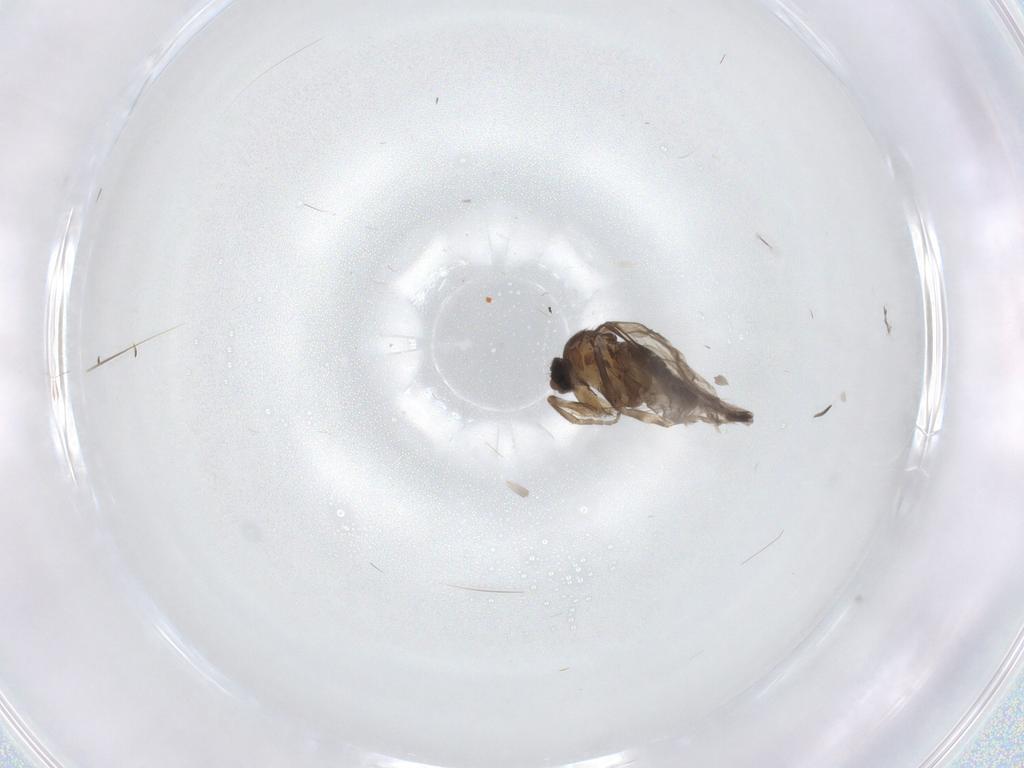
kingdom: Animalia
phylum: Arthropoda
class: Insecta
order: Diptera
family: Phoridae
